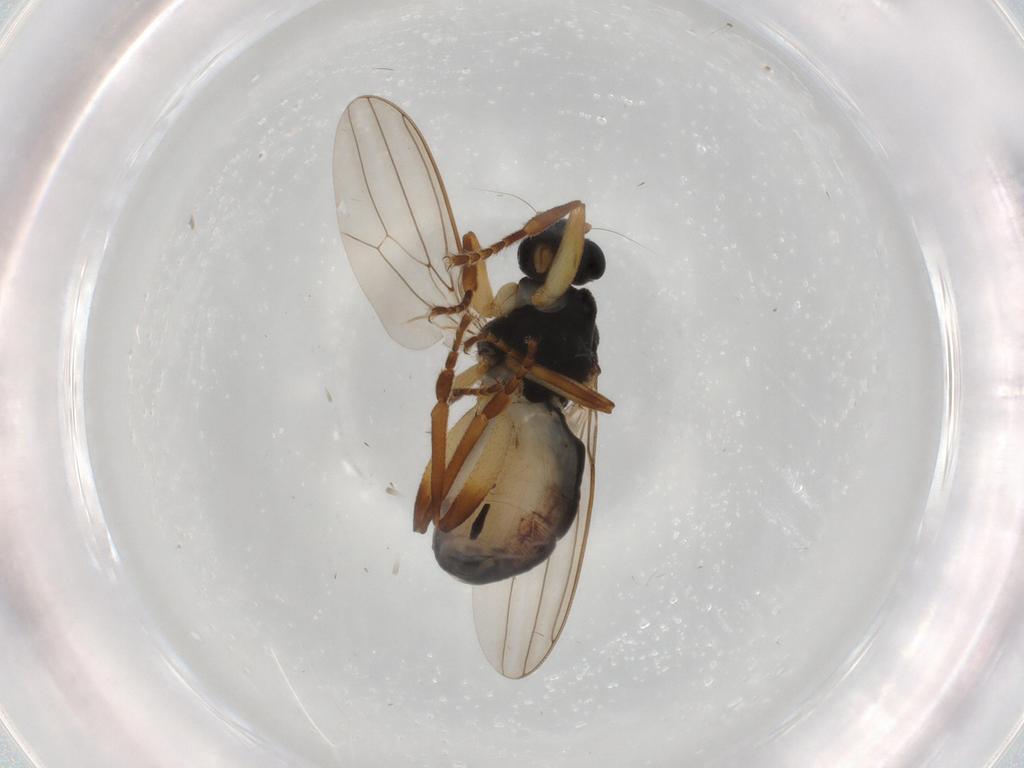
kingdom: Animalia
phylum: Arthropoda
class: Insecta
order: Diptera
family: Sphaeroceridae
